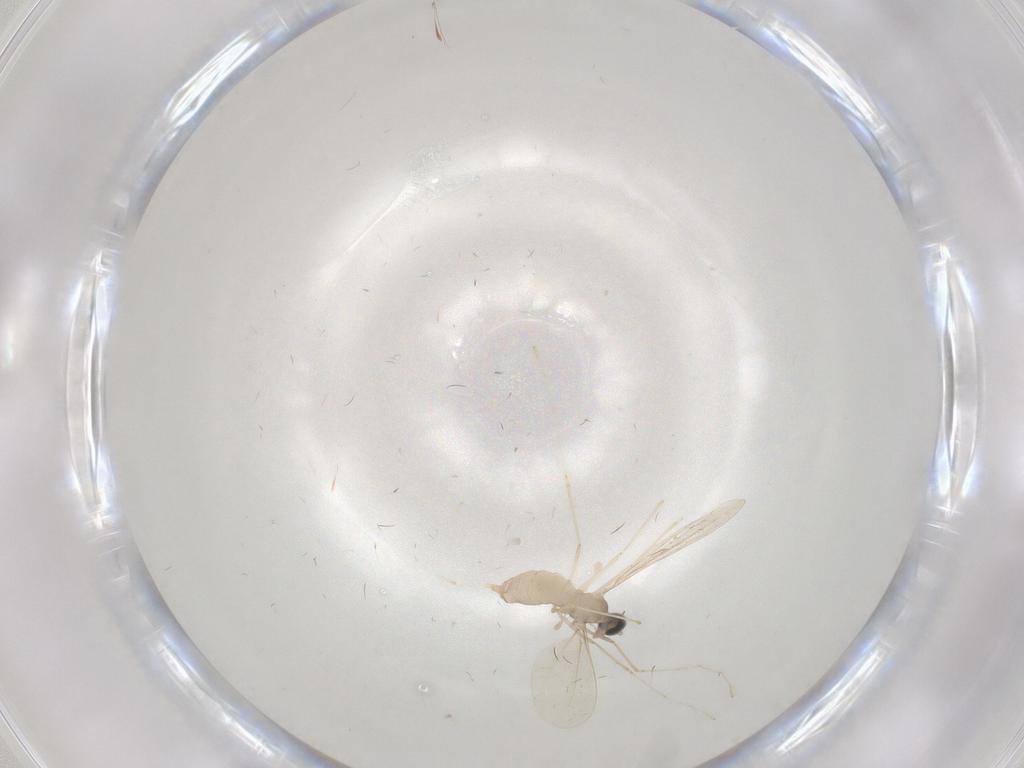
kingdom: Animalia
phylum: Arthropoda
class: Insecta
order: Diptera
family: Cecidomyiidae
